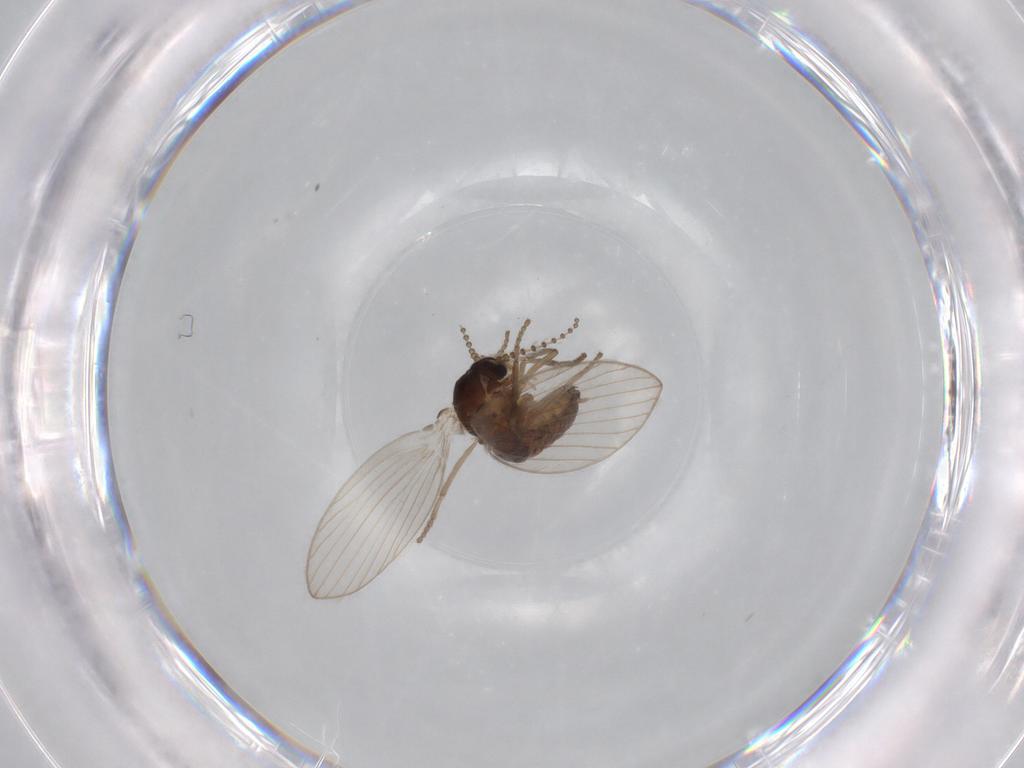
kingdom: Animalia
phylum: Arthropoda
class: Insecta
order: Diptera
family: Psychodidae
